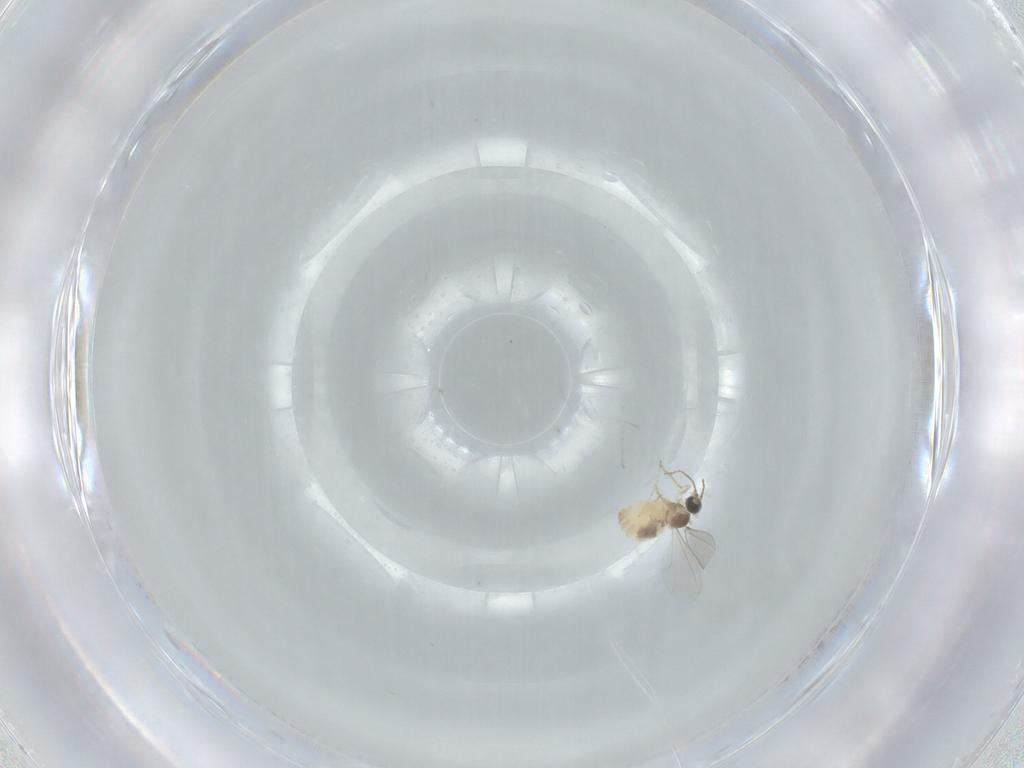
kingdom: Animalia
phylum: Arthropoda
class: Insecta
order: Diptera
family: Cecidomyiidae
